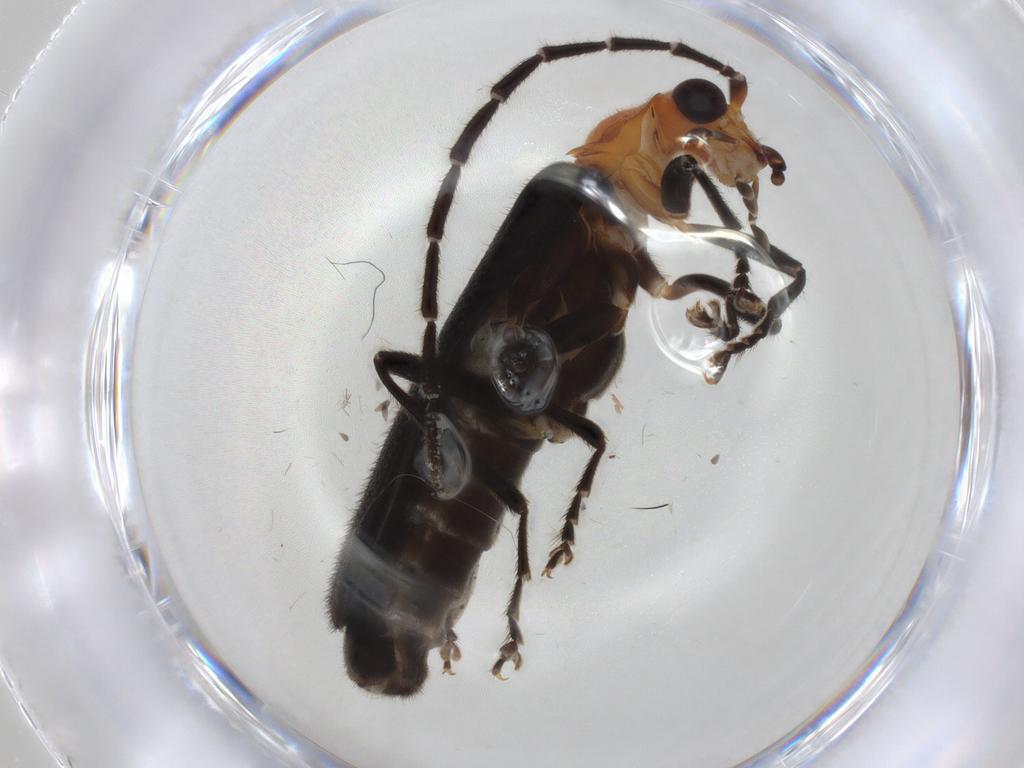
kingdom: Animalia
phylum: Arthropoda
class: Insecta
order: Coleoptera
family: Cantharidae
